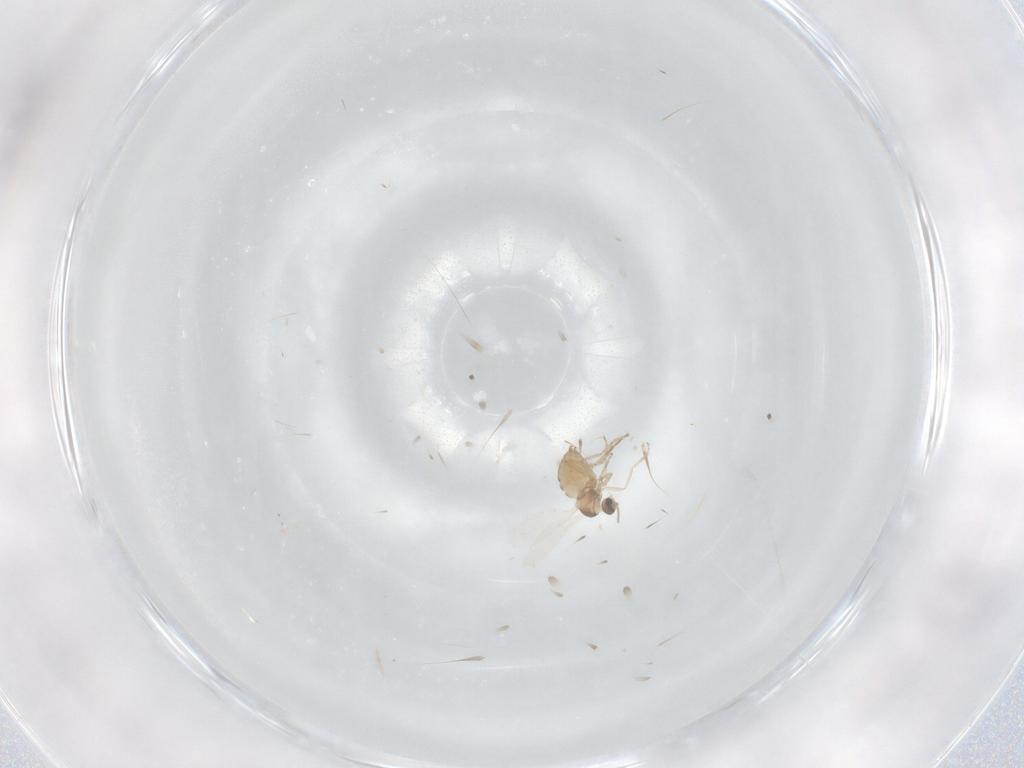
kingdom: Animalia
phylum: Arthropoda
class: Insecta
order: Diptera
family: Cecidomyiidae
